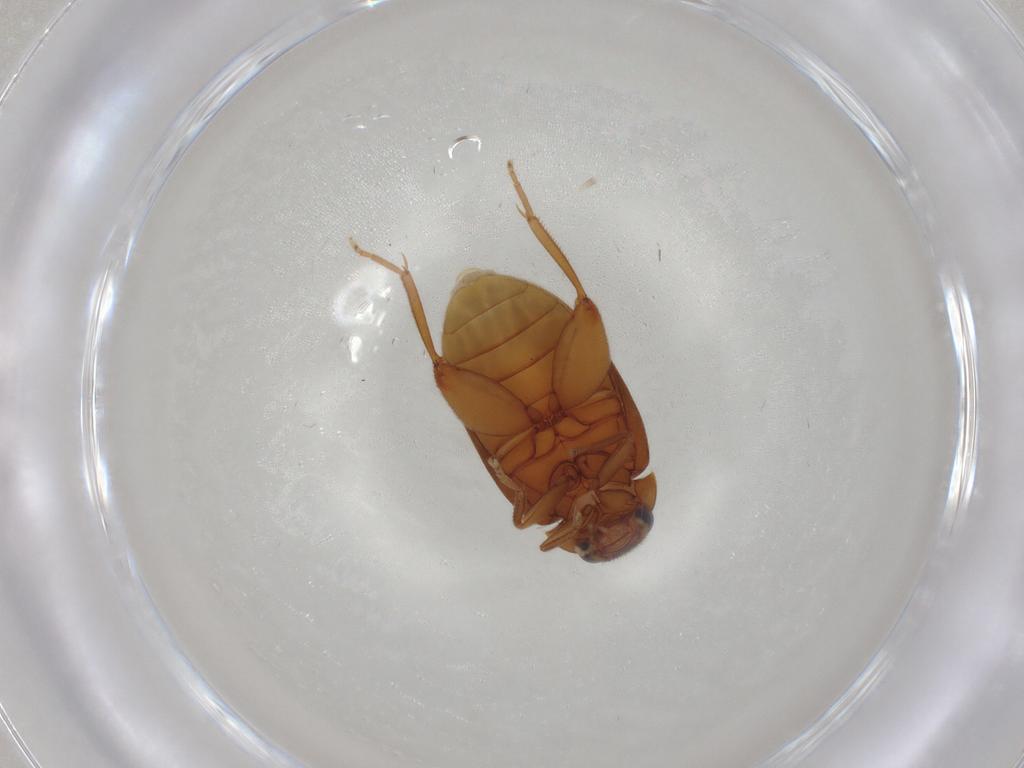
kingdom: Animalia
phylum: Arthropoda
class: Insecta
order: Coleoptera
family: Scirtidae
